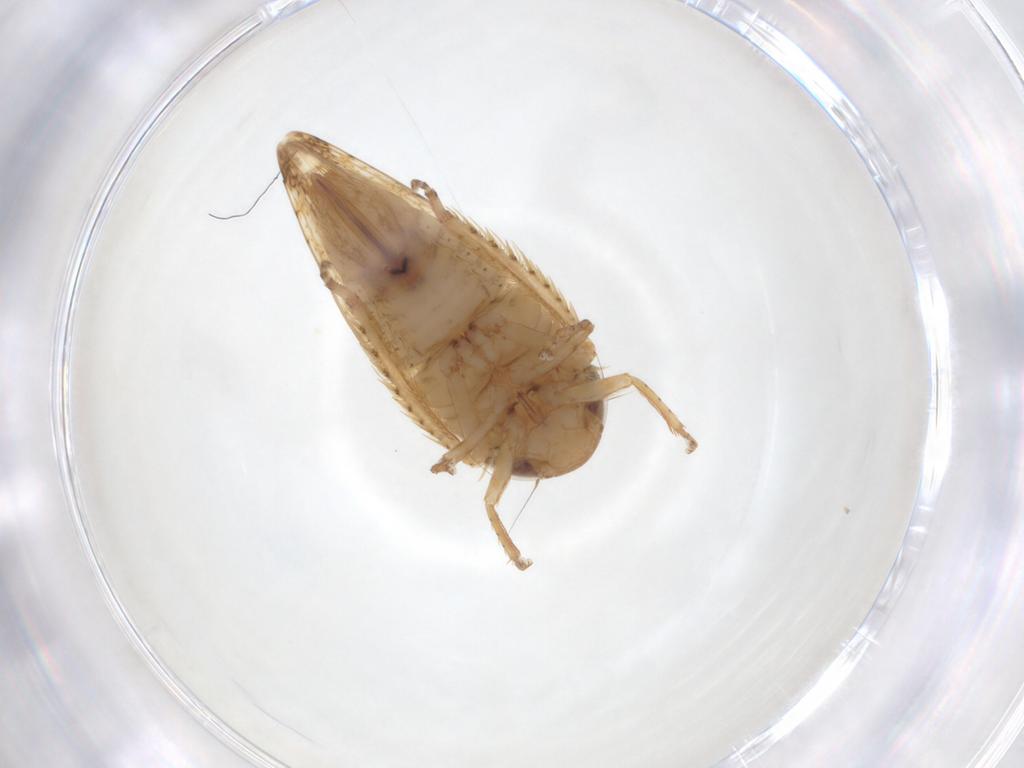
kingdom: Animalia
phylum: Arthropoda
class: Insecta
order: Hemiptera
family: Cicadellidae
